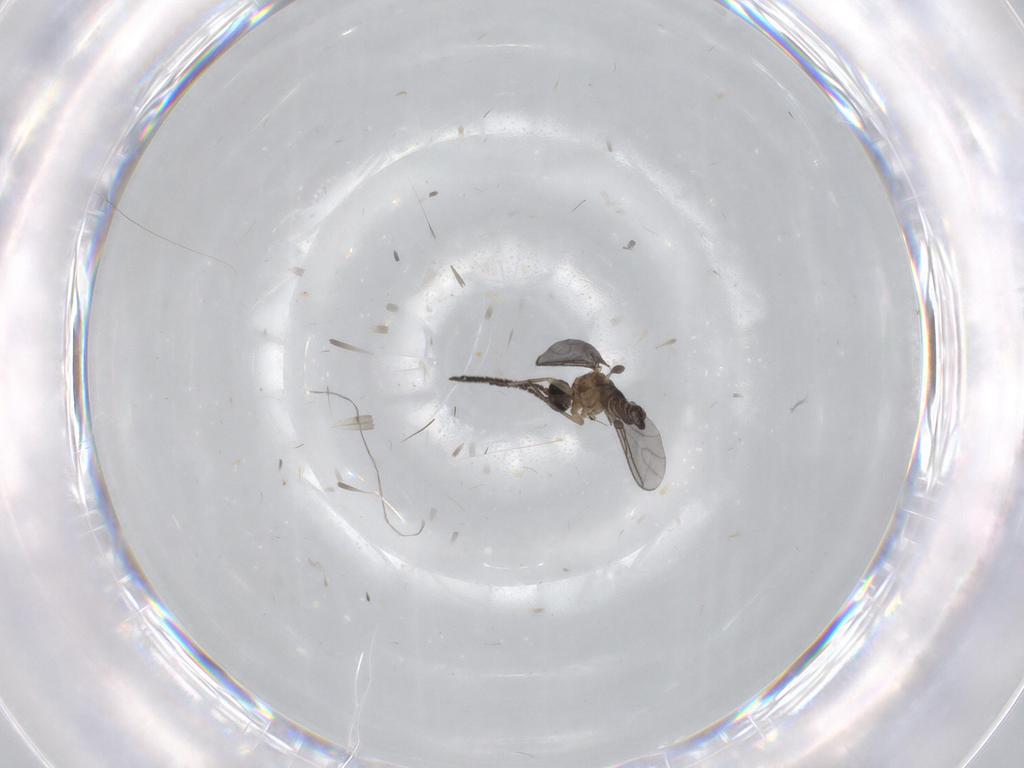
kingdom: Animalia
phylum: Arthropoda
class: Insecta
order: Diptera
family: Sciaridae
